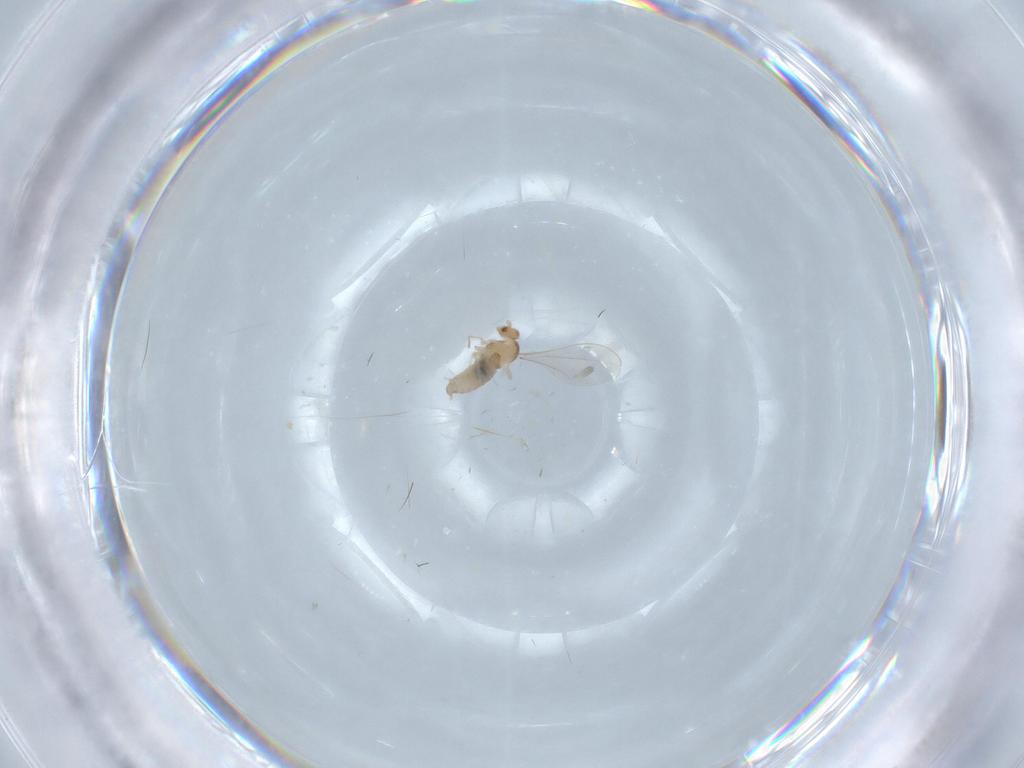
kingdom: Animalia
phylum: Arthropoda
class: Insecta
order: Diptera
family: Cecidomyiidae
